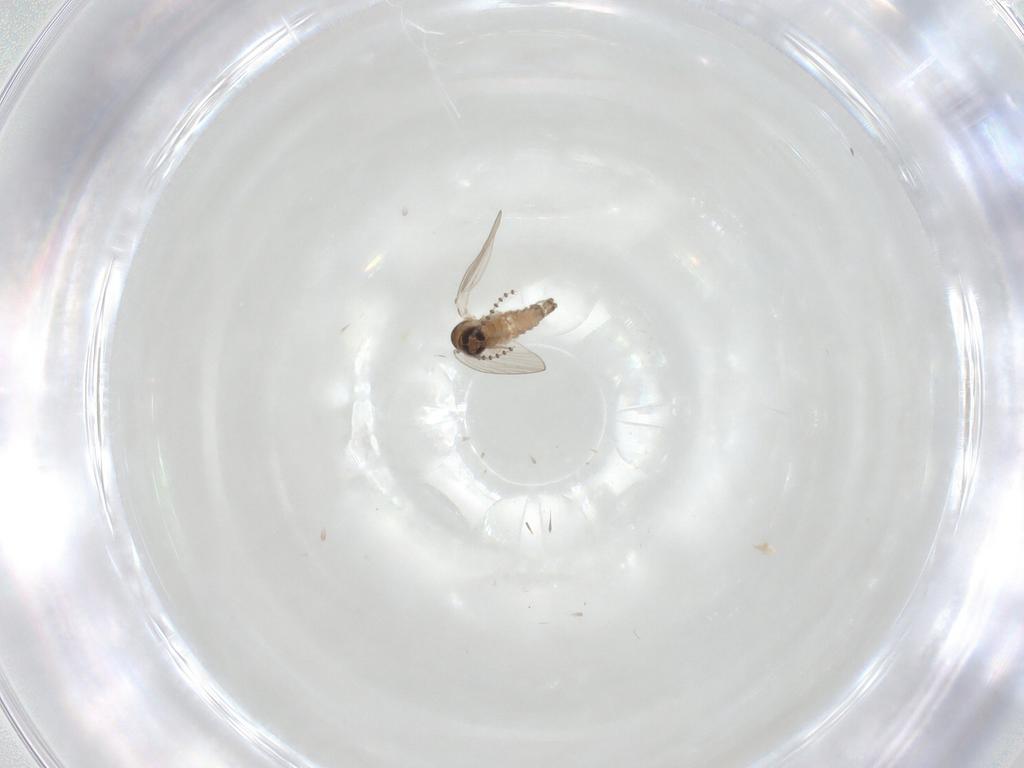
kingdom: Animalia
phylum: Arthropoda
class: Insecta
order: Diptera
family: Psychodidae
